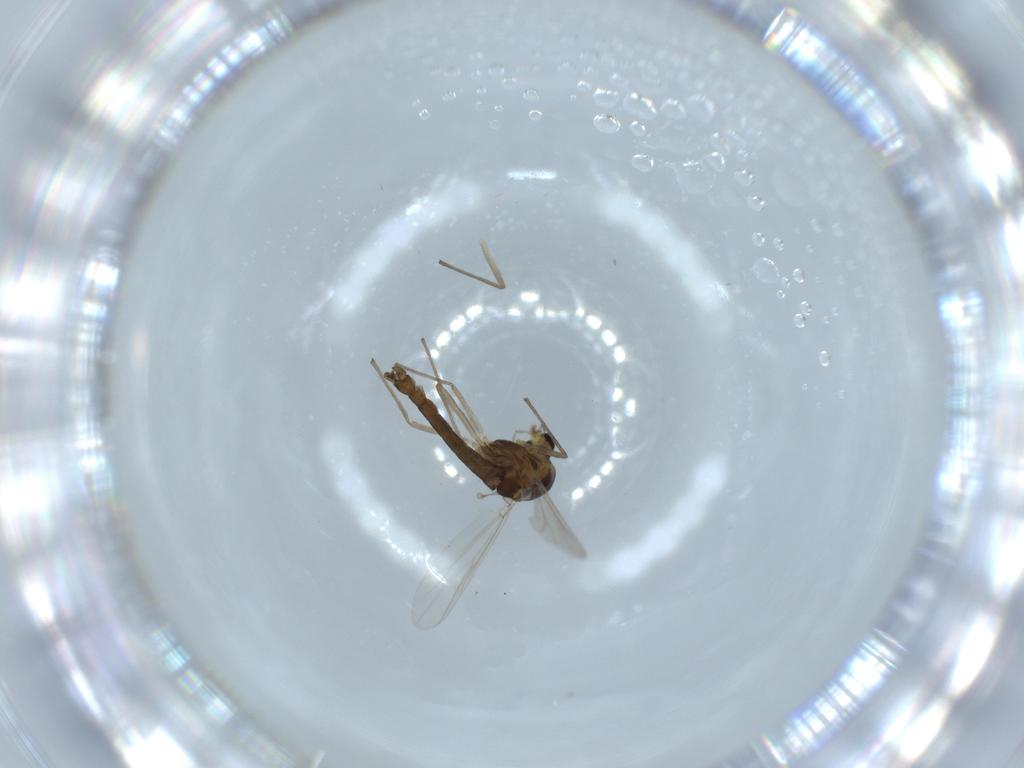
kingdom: Animalia
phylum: Arthropoda
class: Insecta
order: Diptera
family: Chironomidae
